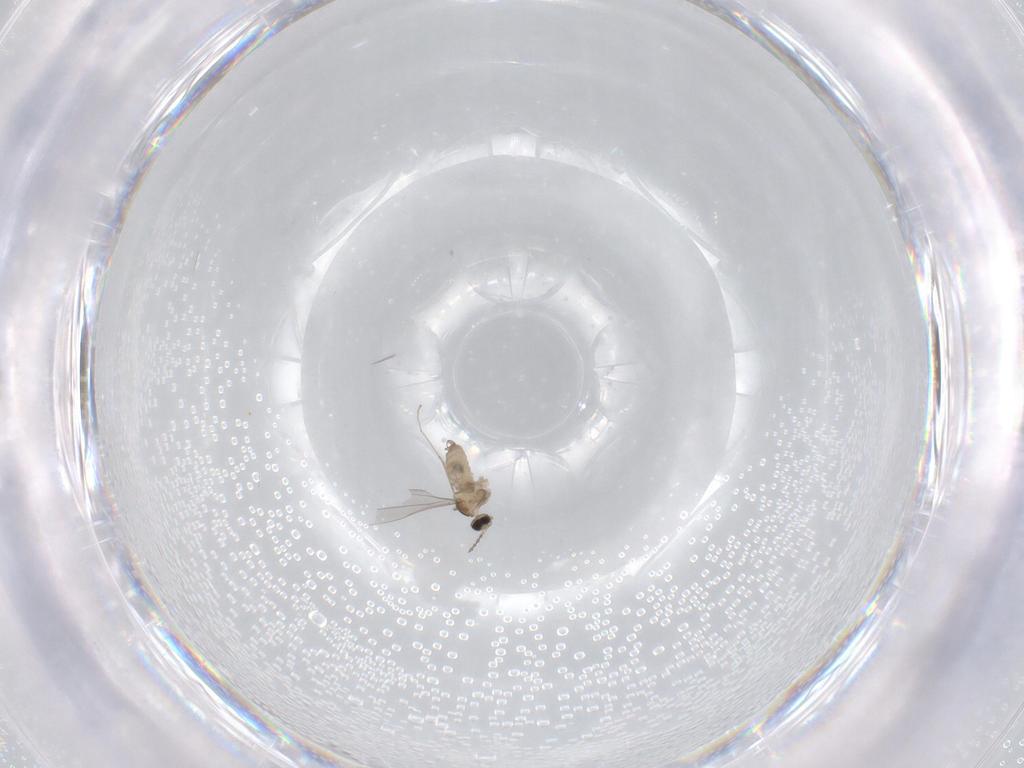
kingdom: Animalia
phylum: Arthropoda
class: Insecta
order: Diptera
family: Cecidomyiidae
